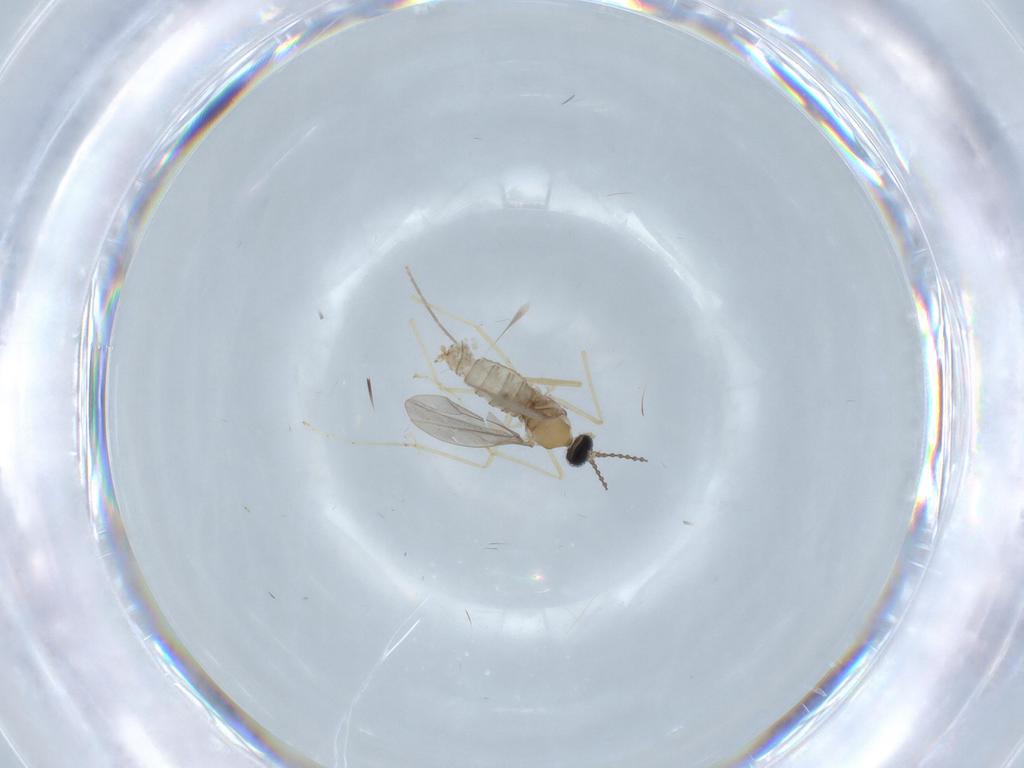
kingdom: Animalia
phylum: Arthropoda
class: Insecta
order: Diptera
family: Cecidomyiidae
